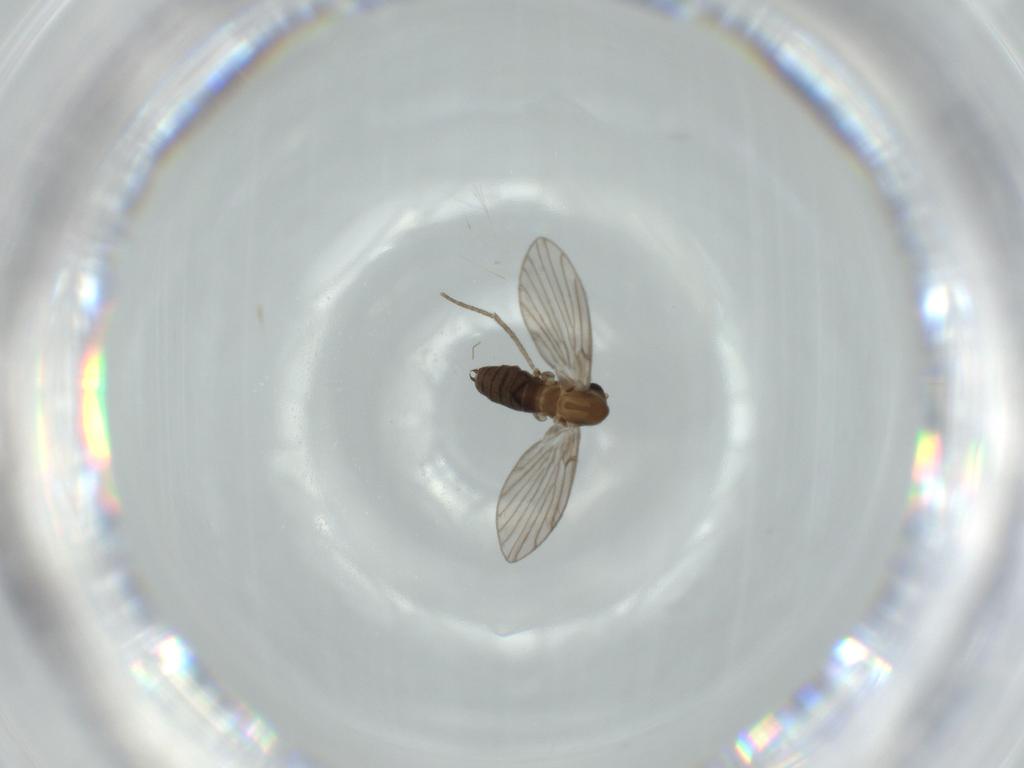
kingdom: Animalia
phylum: Arthropoda
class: Insecta
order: Diptera
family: Psychodidae
